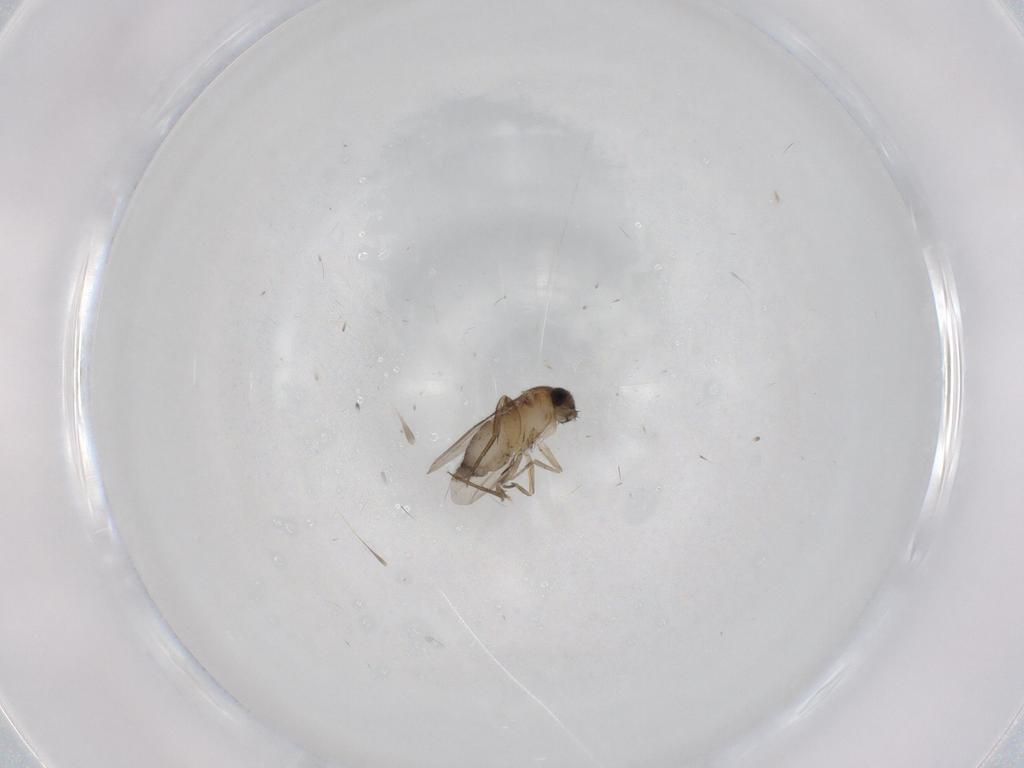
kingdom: Animalia
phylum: Arthropoda
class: Insecta
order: Diptera
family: Phoridae
